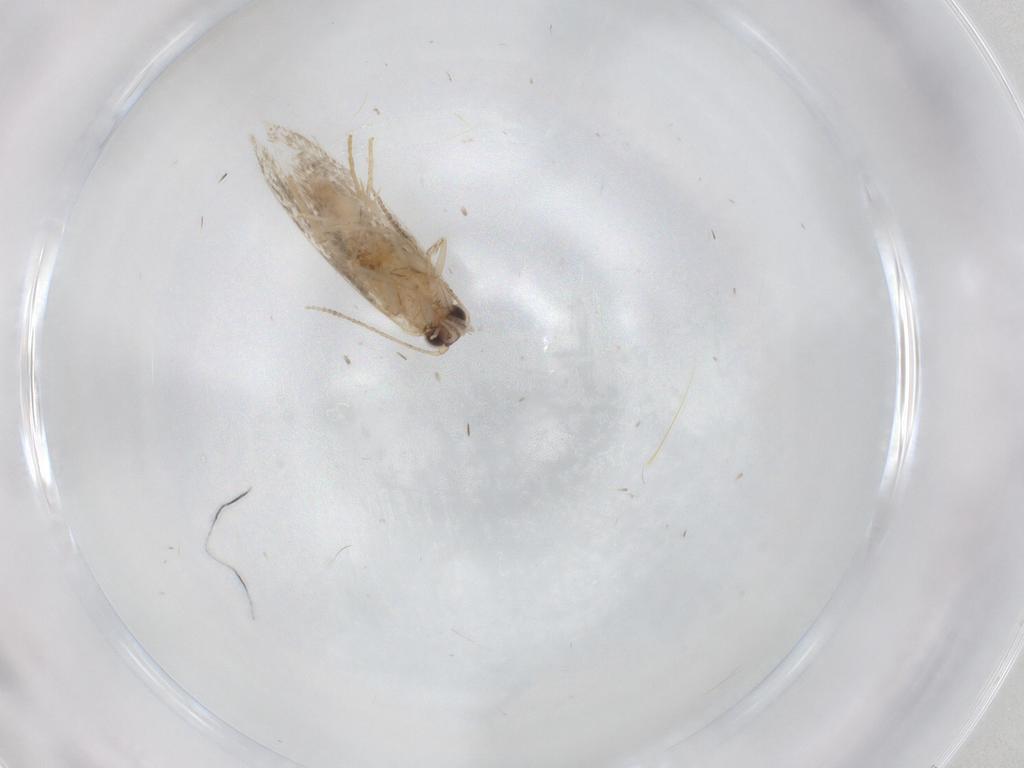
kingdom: Animalia
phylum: Arthropoda
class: Insecta
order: Lepidoptera
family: Tineidae
